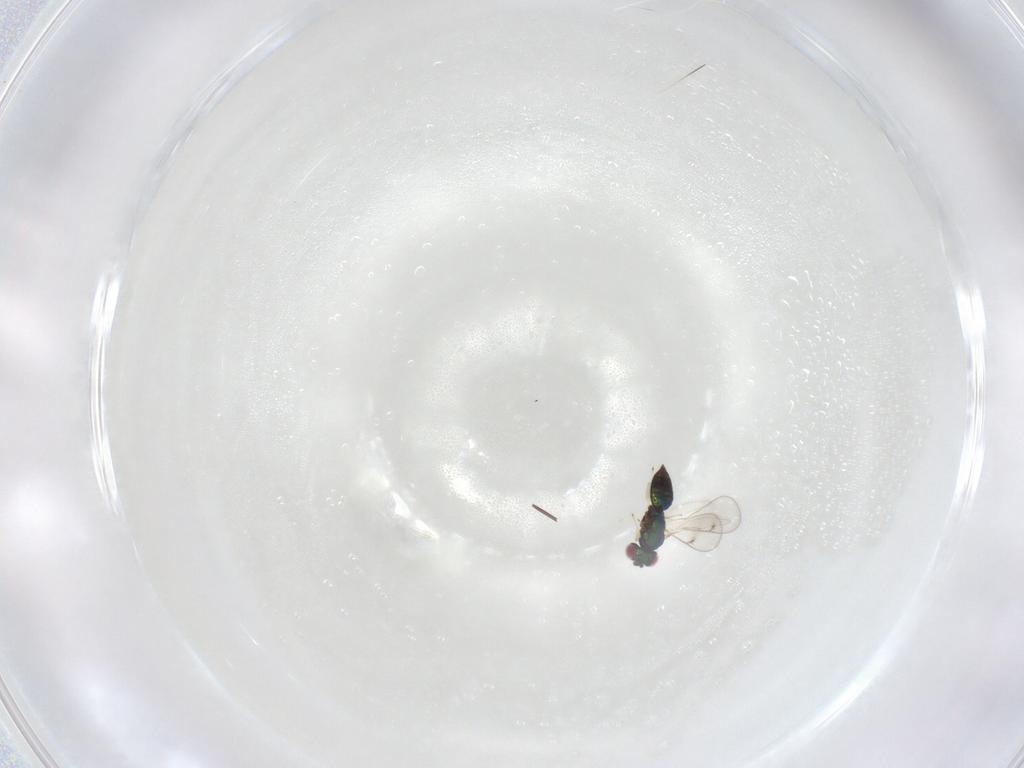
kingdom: Animalia
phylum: Arthropoda
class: Insecta
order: Hymenoptera
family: Eulophidae
